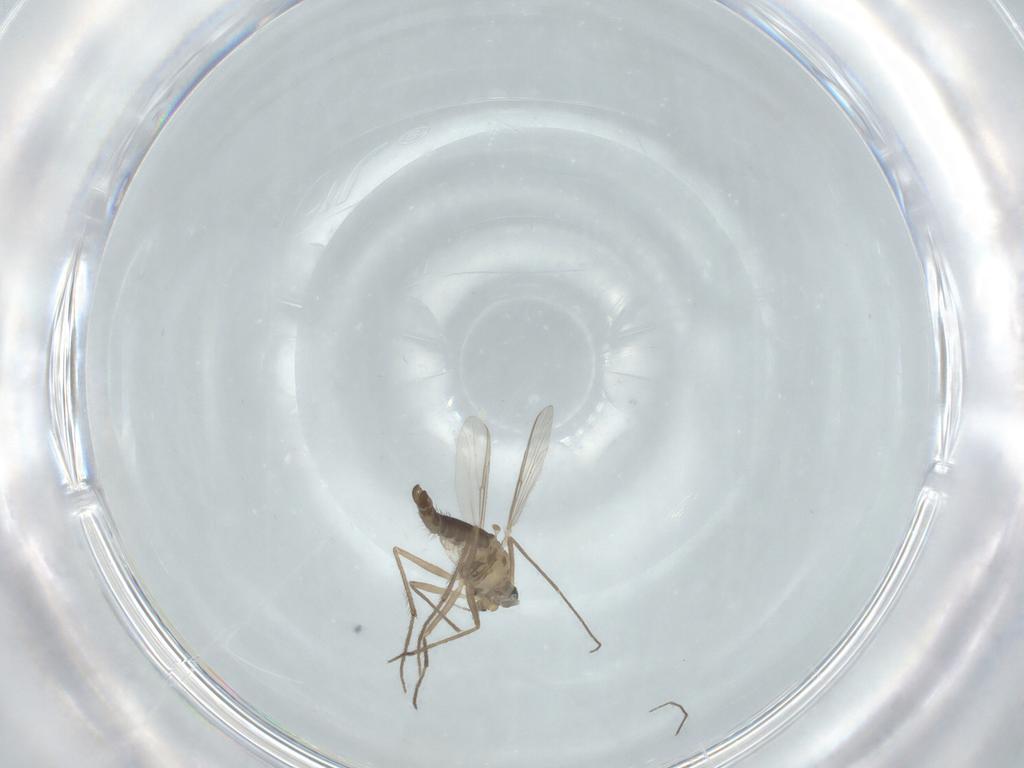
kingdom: Animalia
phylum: Arthropoda
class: Insecta
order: Diptera
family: Chironomidae
